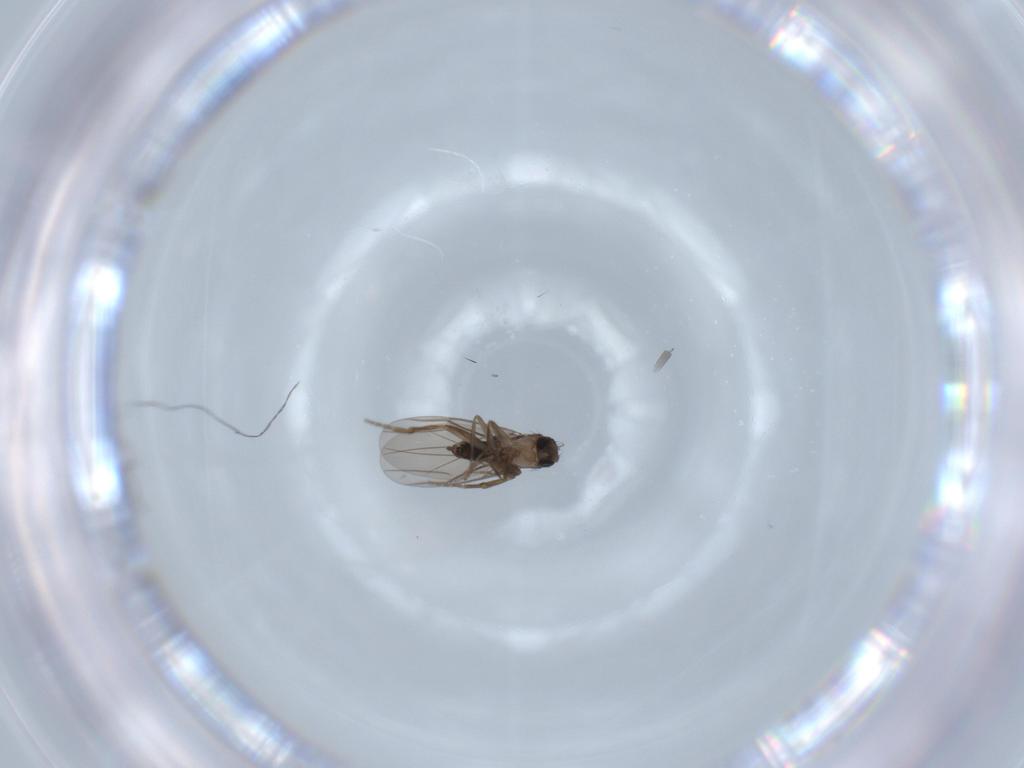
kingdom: Animalia
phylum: Arthropoda
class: Insecta
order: Diptera
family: Phoridae
